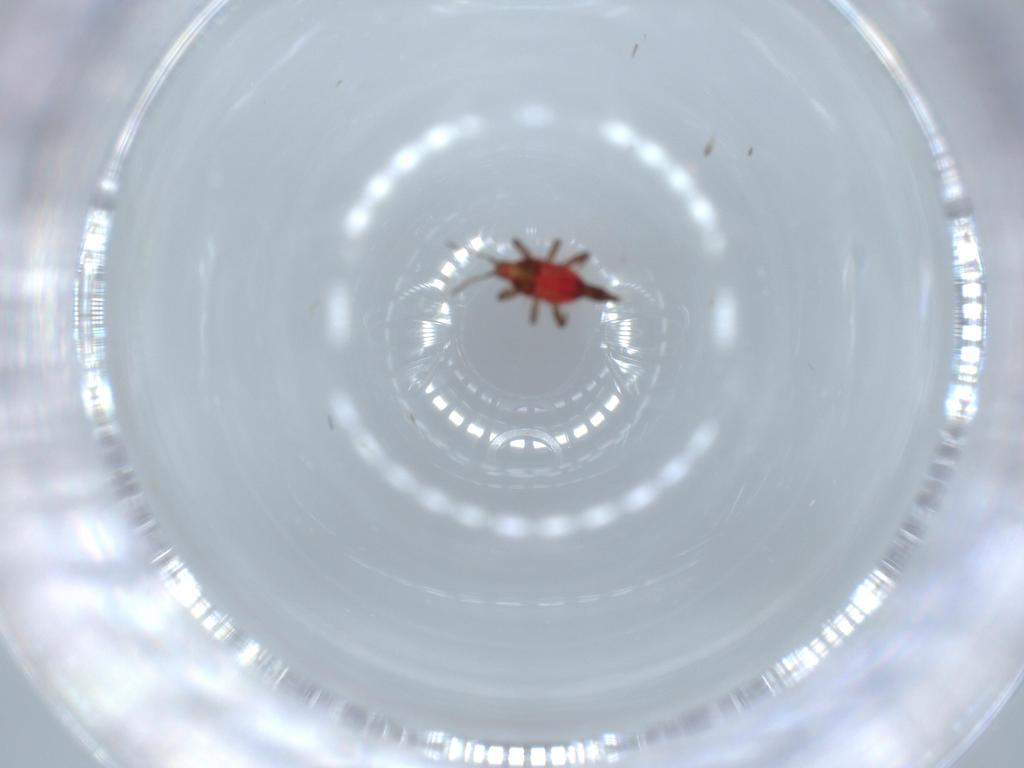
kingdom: Animalia
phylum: Arthropoda
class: Insecta
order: Thysanoptera
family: Phlaeothripidae
